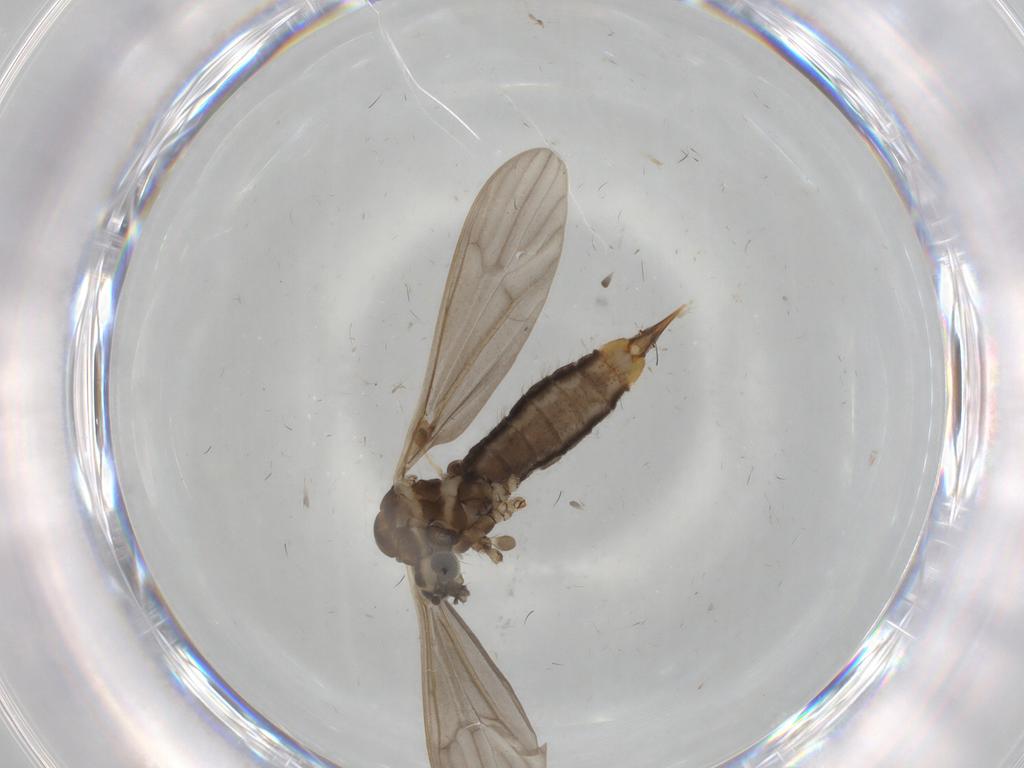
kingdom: Animalia
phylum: Arthropoda
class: Insecta
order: Diptera
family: Limoniidae
